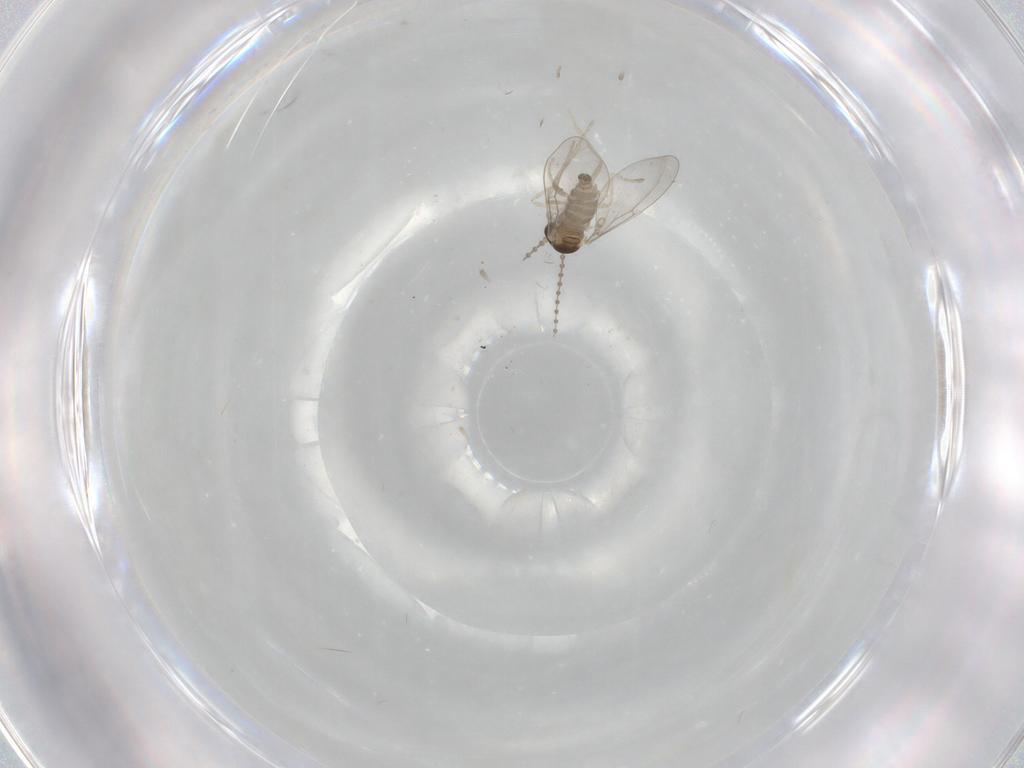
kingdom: Animalia
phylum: Arthropoda
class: Insecta
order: Diptera
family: Cecidomyiidae
